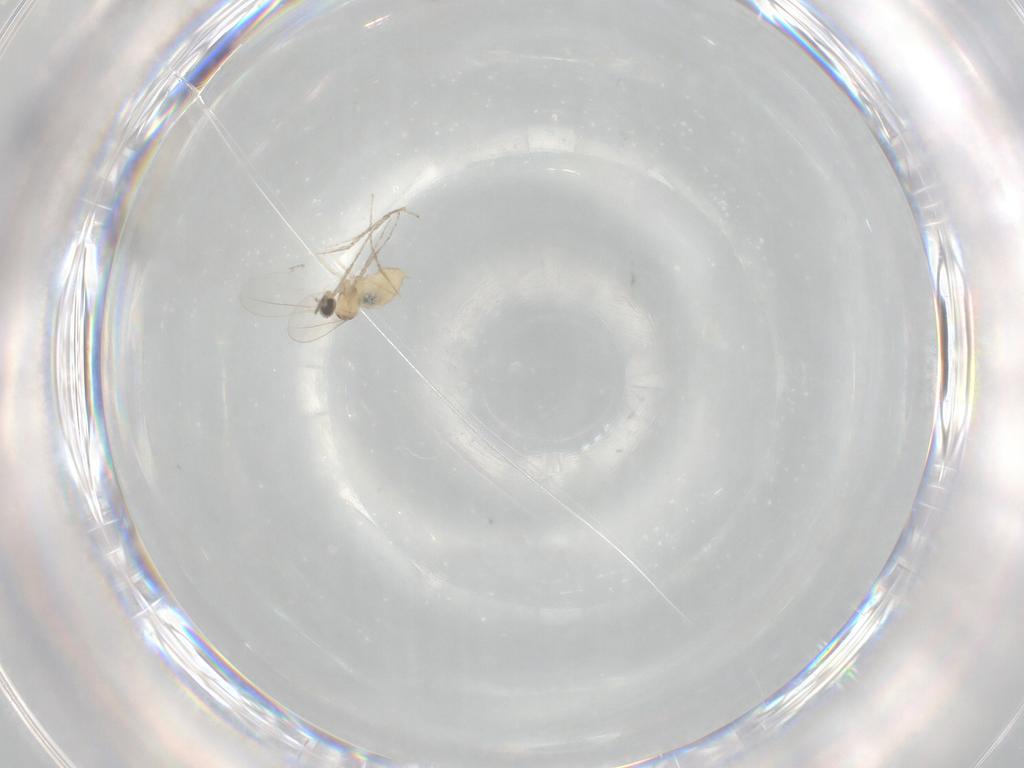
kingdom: Animalia
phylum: Arthropoda
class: Insecta
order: Diptera
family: Cecidomyiidae
